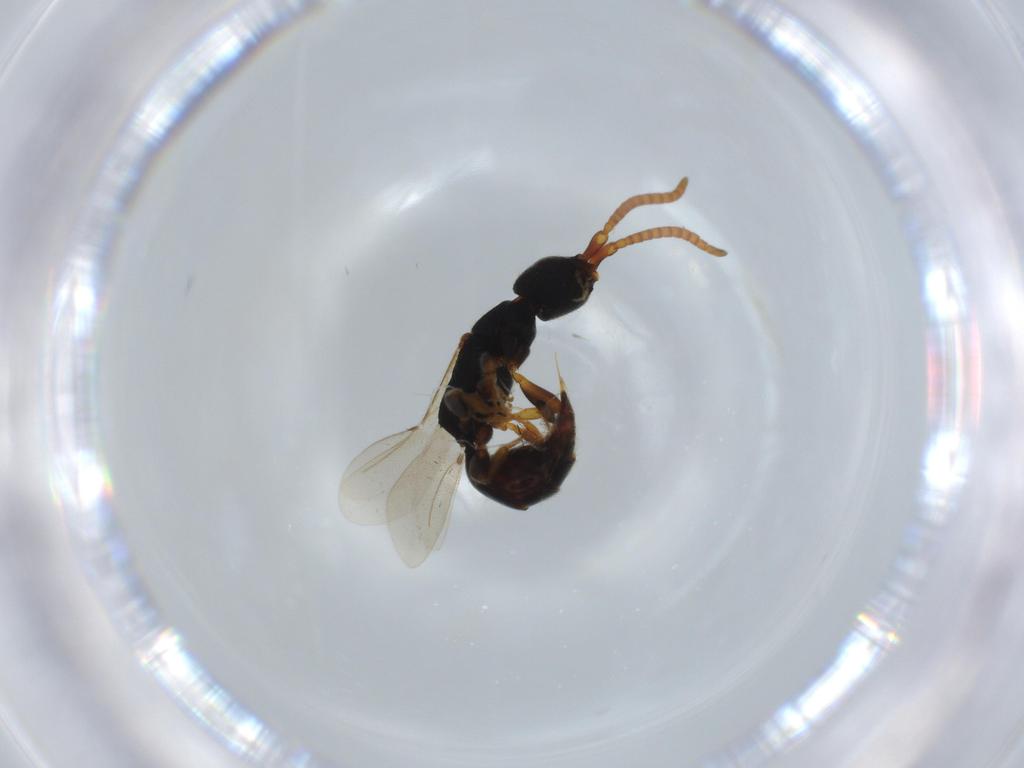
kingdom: Animalia
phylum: Arthropoda
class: Insecta
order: Hymenoptera
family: Bethylidae
